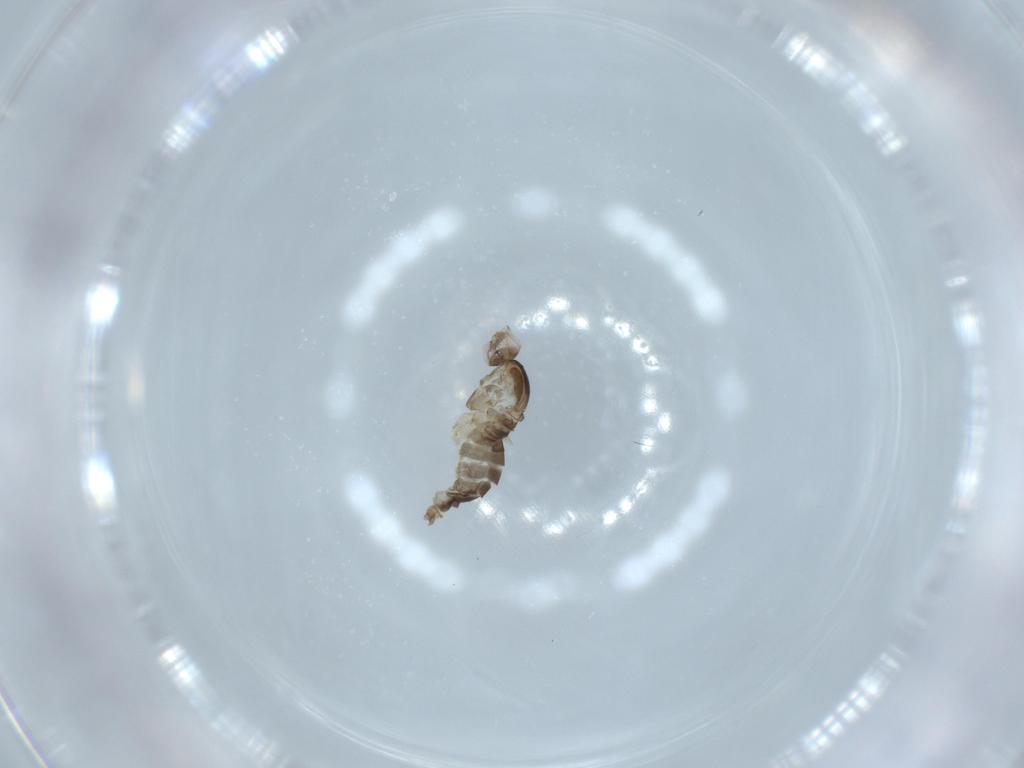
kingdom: Animalia
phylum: Arthropoda
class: Insecta
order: Diptera
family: Cecidomyiidae
